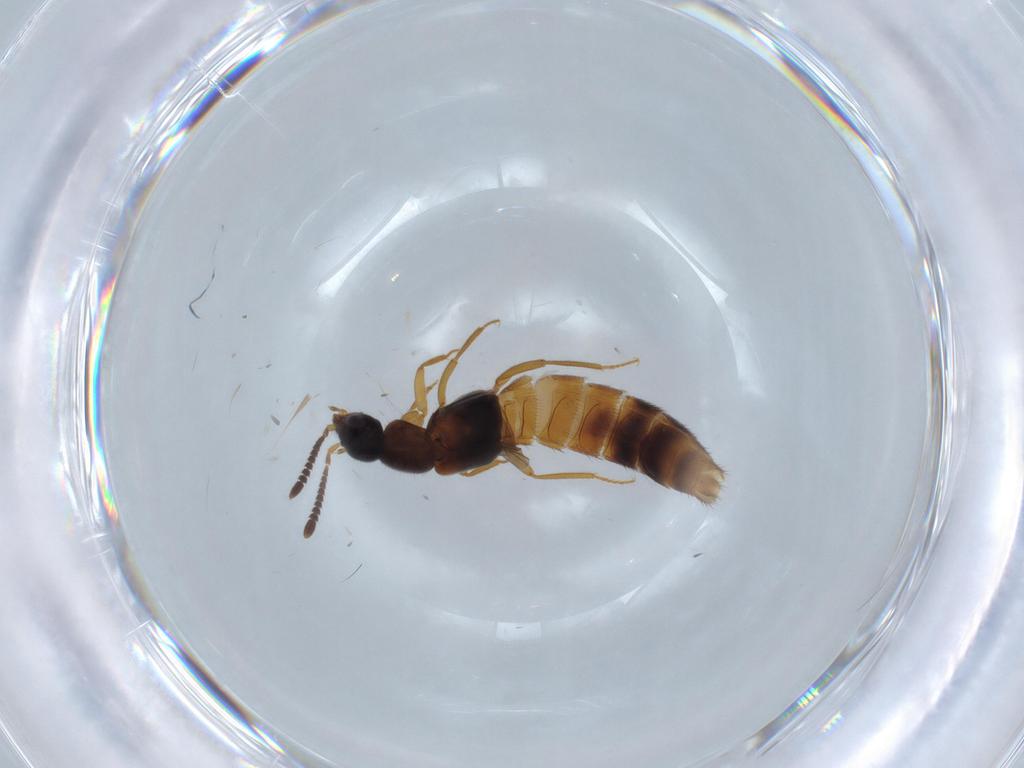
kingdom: Animalia
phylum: Arthropoda
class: Insecta
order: Coleoptera
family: Staphylinidae
